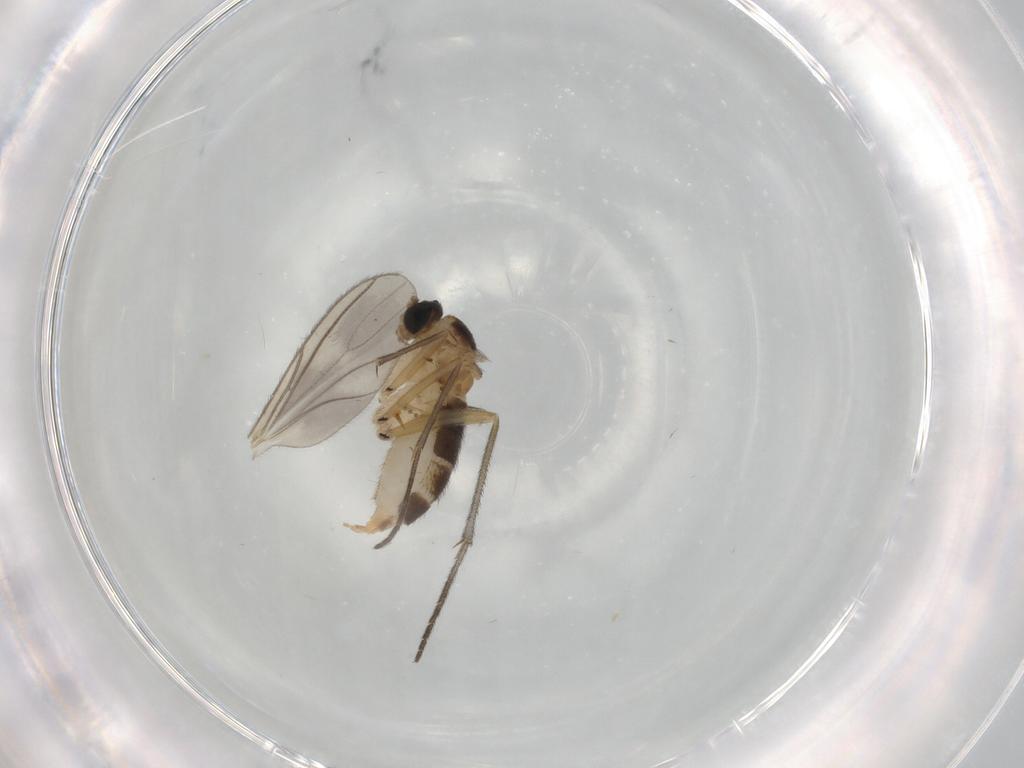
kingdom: Animalia
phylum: Arthropoda
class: Insecta
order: Diptera
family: Sciaridae
